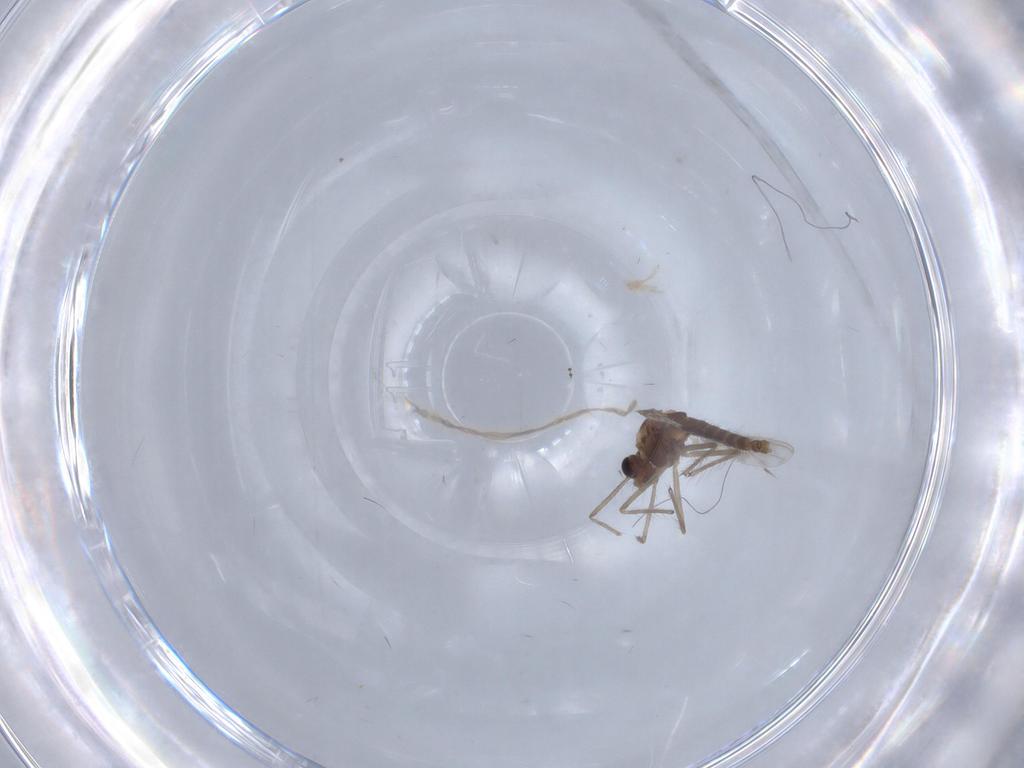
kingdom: Animalia
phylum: Arthropoda
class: Insecta
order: Diptera
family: Chironomidae
